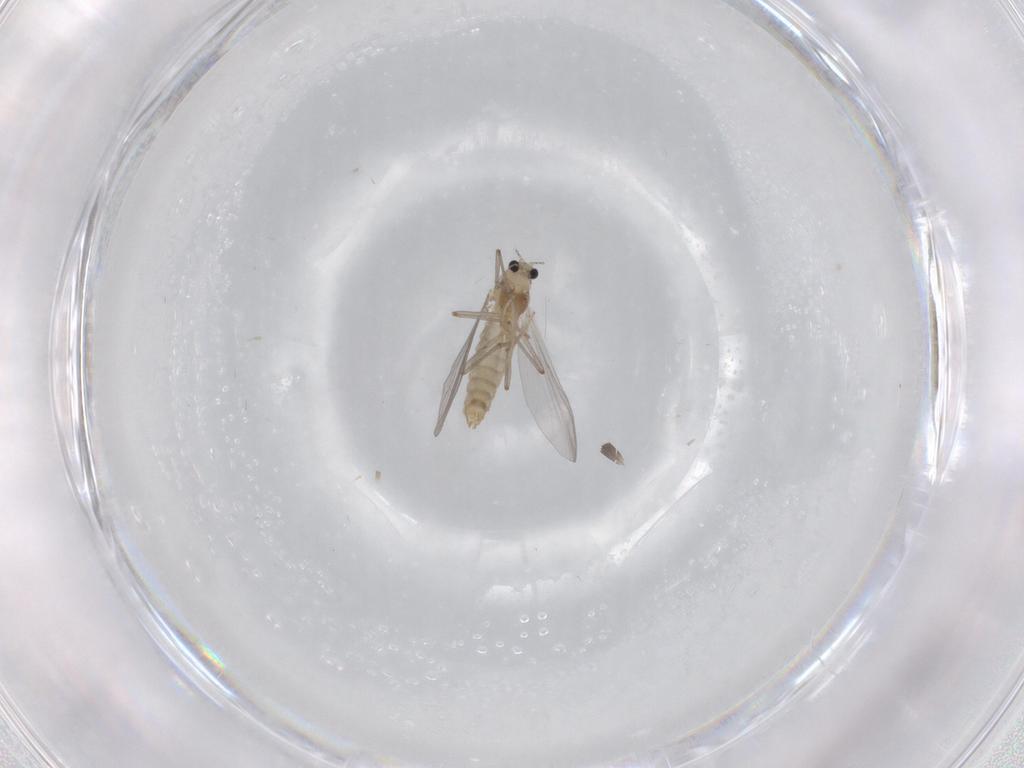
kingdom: Animalia
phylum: Arthropoda
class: Insecta
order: Diptera
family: Chironomidae
